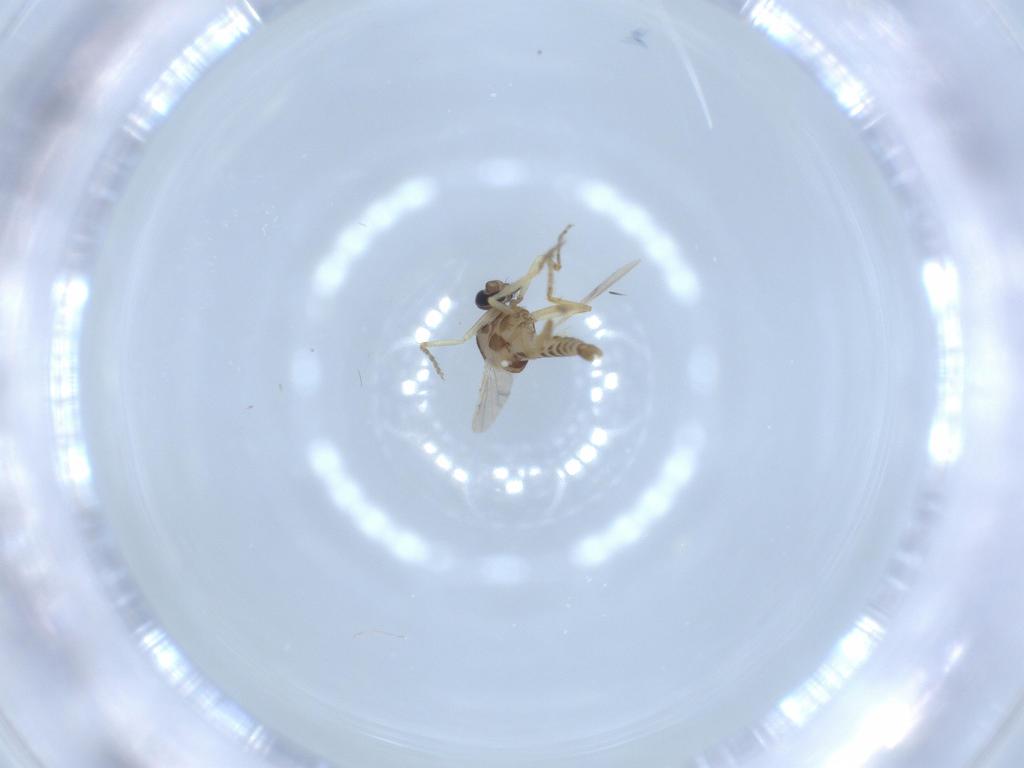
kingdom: Animalia
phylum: Arthropoda
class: Insecta
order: Diptera
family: Ceratopogonidae
